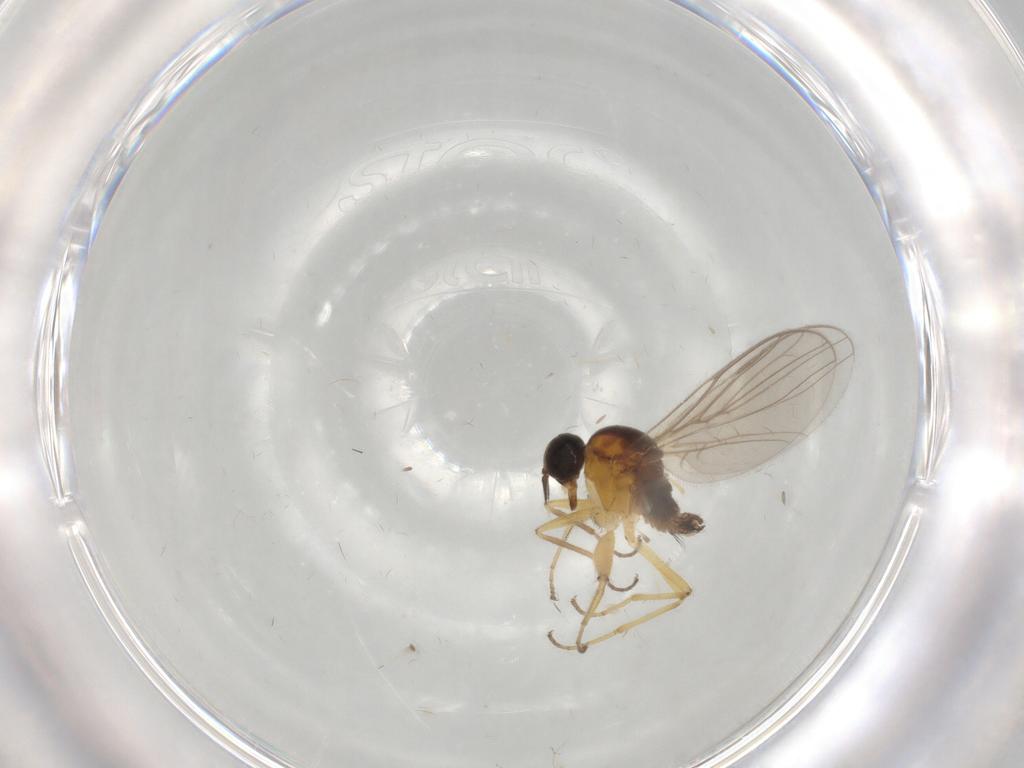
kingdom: Animalia
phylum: Arthropoda
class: Insecta
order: Diptera
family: Hybotidae
